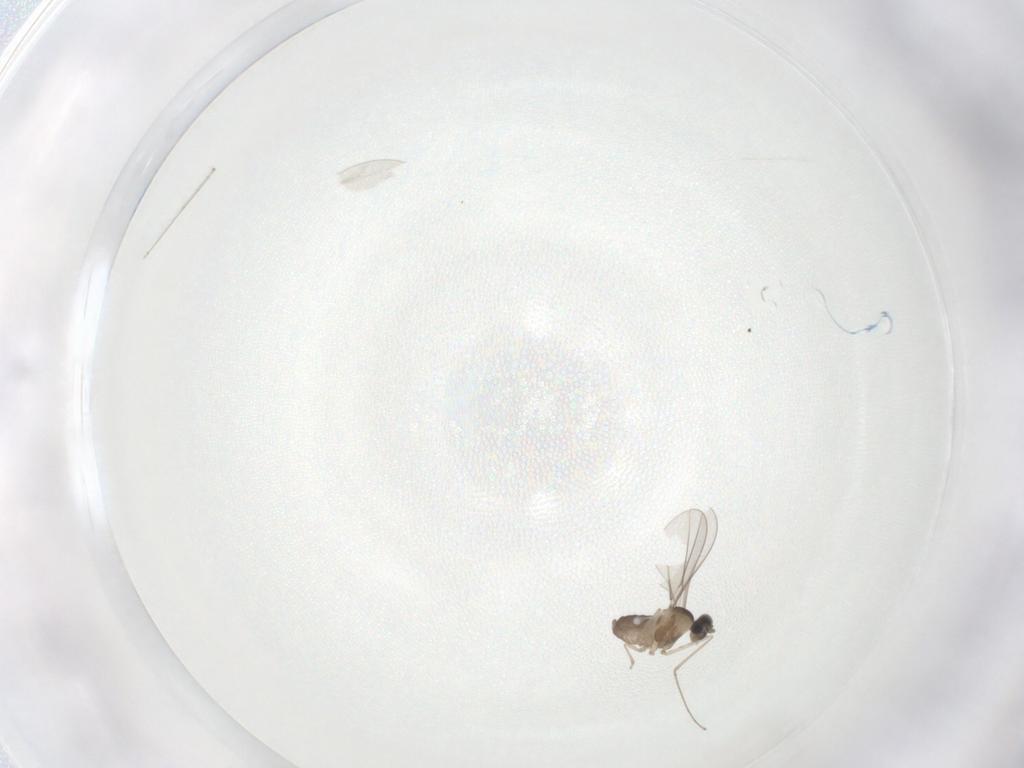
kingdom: Animalia
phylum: Arthropoda
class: Insecta
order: Diptera
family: Cecidomyiidae
